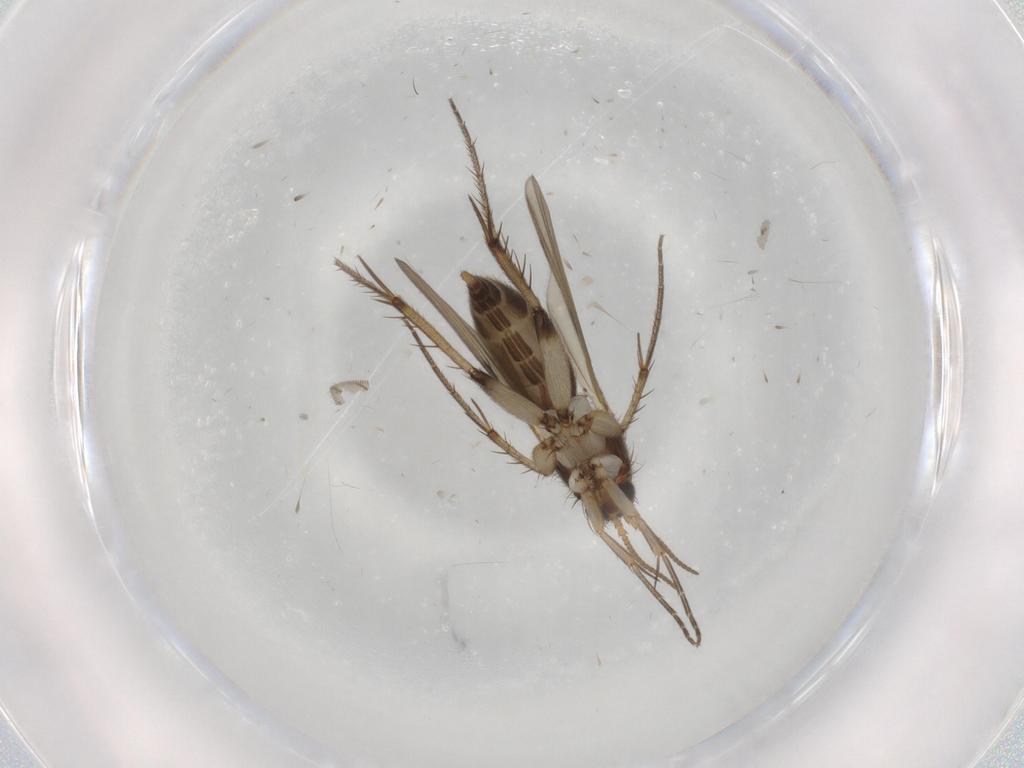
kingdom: Animalia
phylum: Arthropoda
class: Insecta
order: Diptera
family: Mycetophilidae
